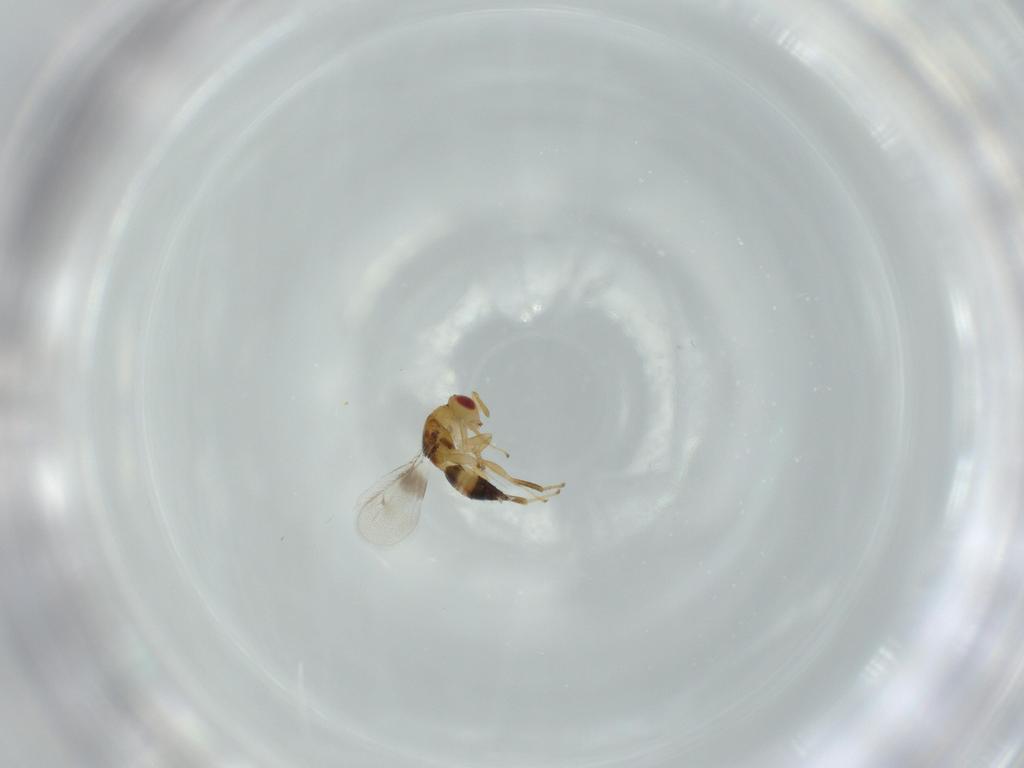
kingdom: Animalia
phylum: Arthropoda
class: Insecta
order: Hymenoptera
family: Torymidae
